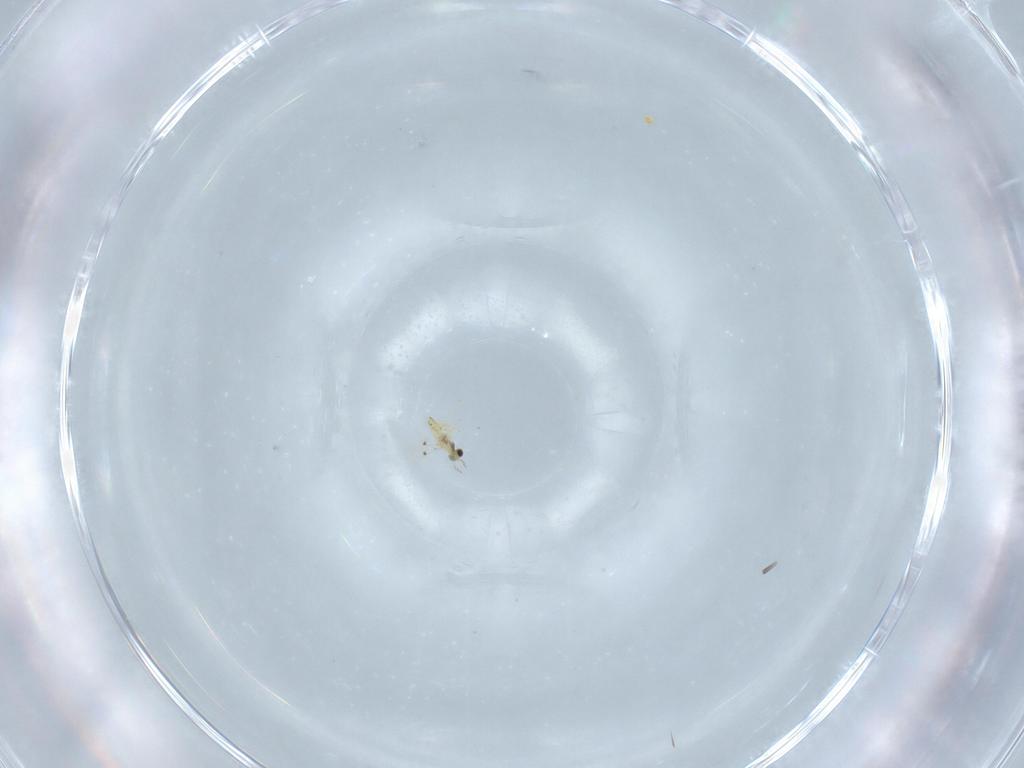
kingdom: Animalia
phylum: Arthropoda
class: Insecta
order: Hymenoptera
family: Trichogrammatidae
